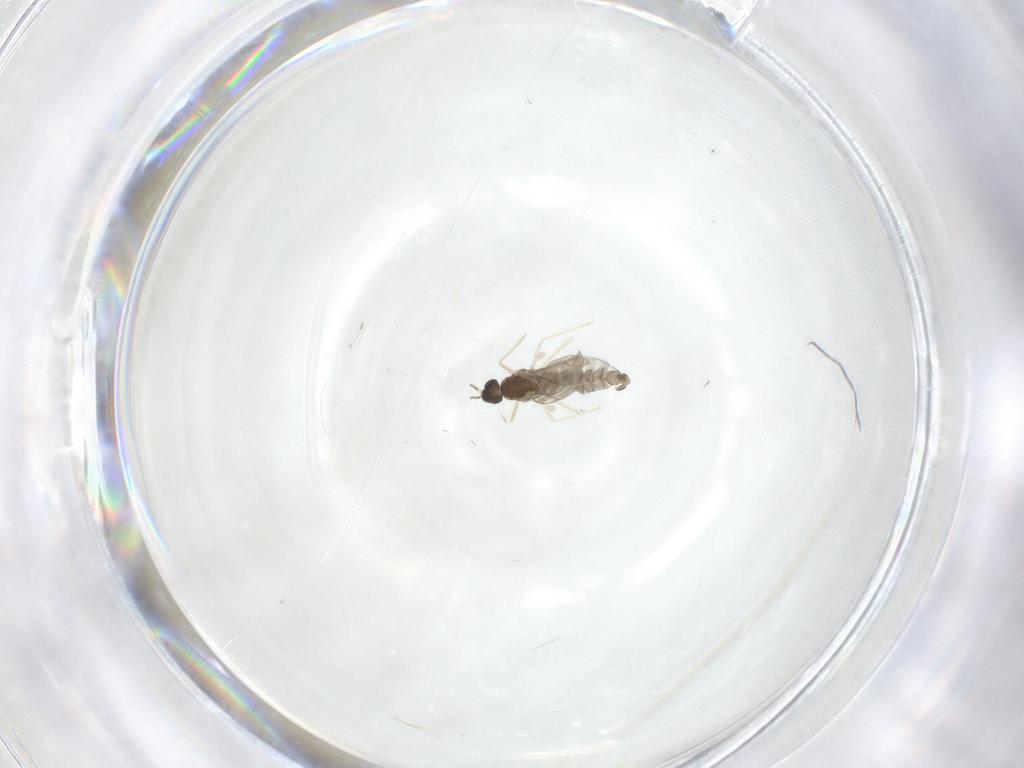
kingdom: Animalia
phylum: Arthropoda
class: Insecta
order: Diptera
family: Cecidomyiidae
